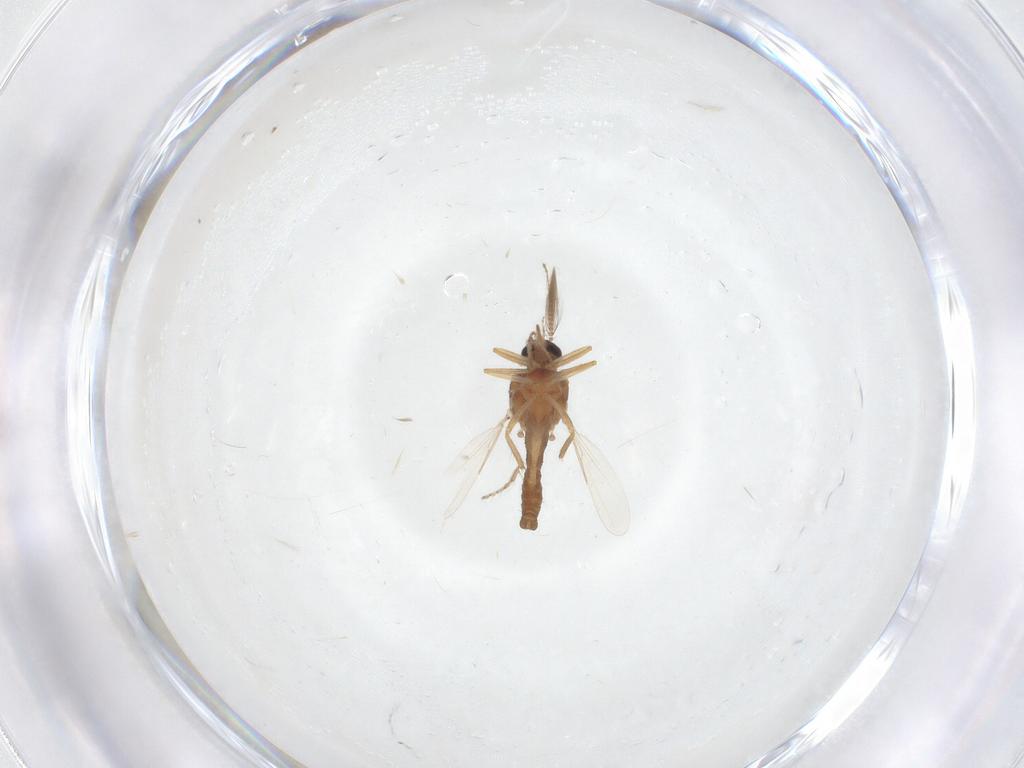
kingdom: Animalia
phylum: Arthropoda
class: Insecta
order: Diptera
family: Ceratopogonidae
